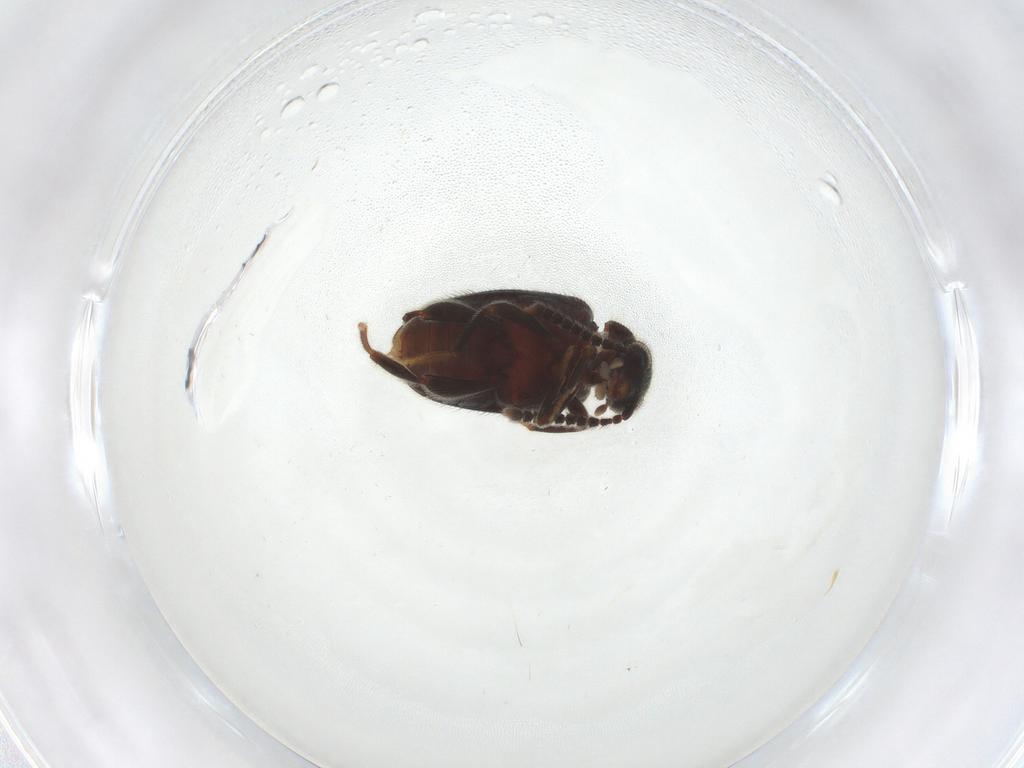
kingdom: Animalia
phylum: Arthropoda
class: Insecta
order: Coleoptera
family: Aderidae
